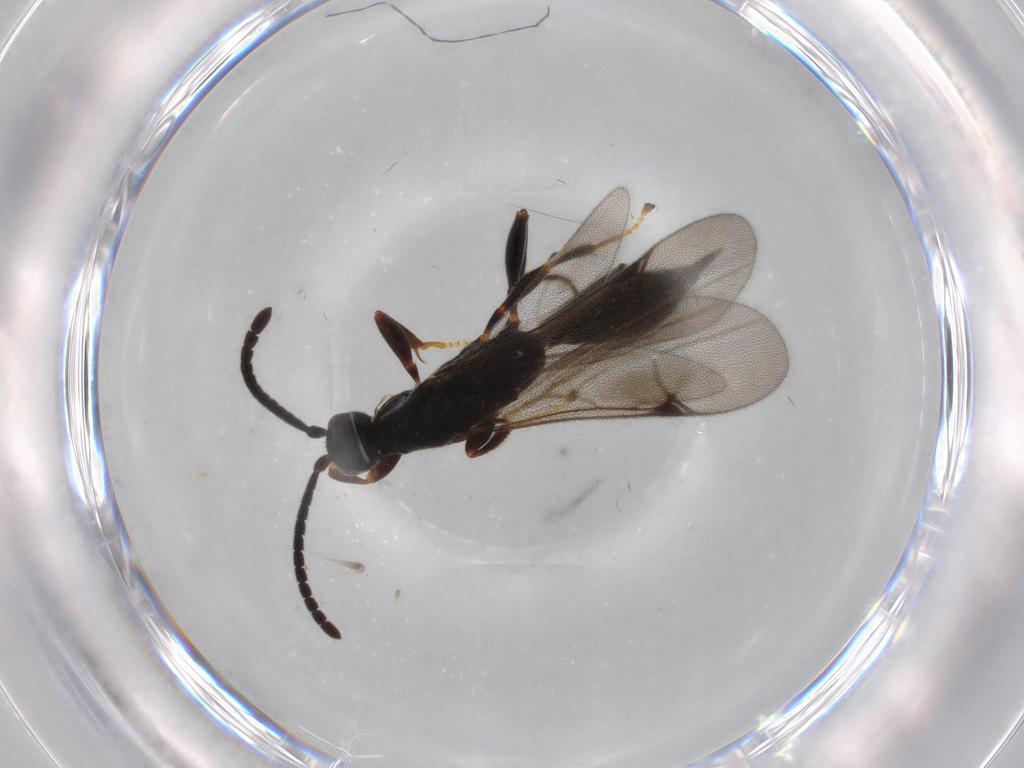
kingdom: Animalia
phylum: Arthropoda
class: Insecta
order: Hymenoptera
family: Proctotrupidae
